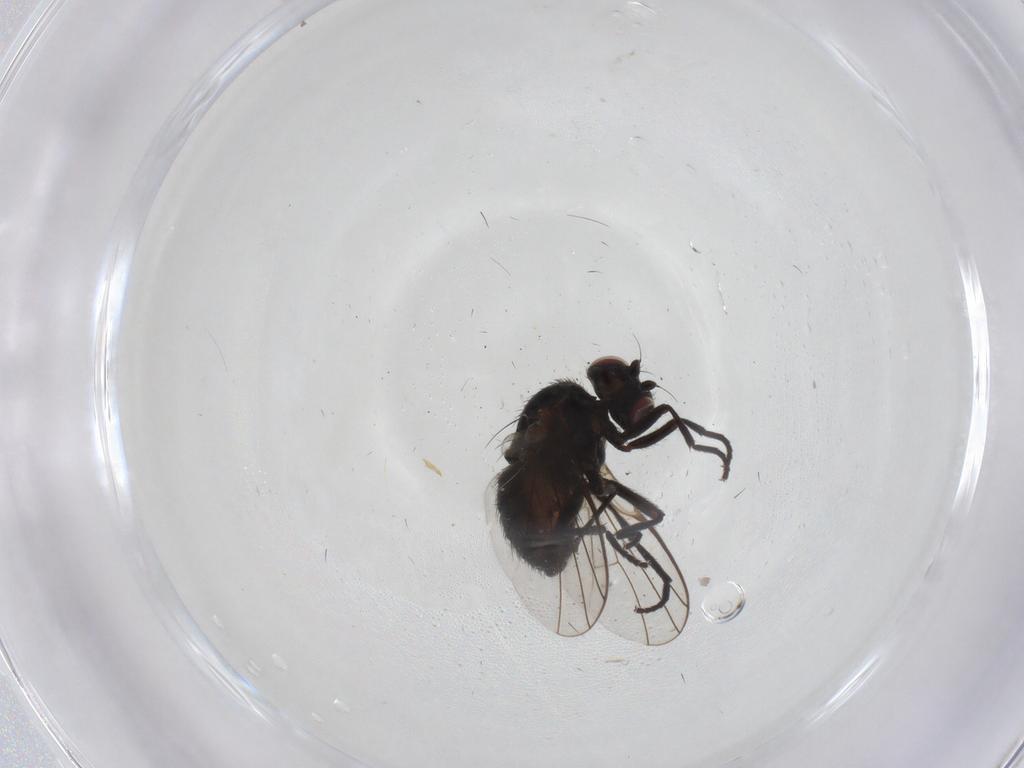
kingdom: Animalia
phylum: Arthropoda
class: Insecta
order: Diptera
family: Agromyzidae
